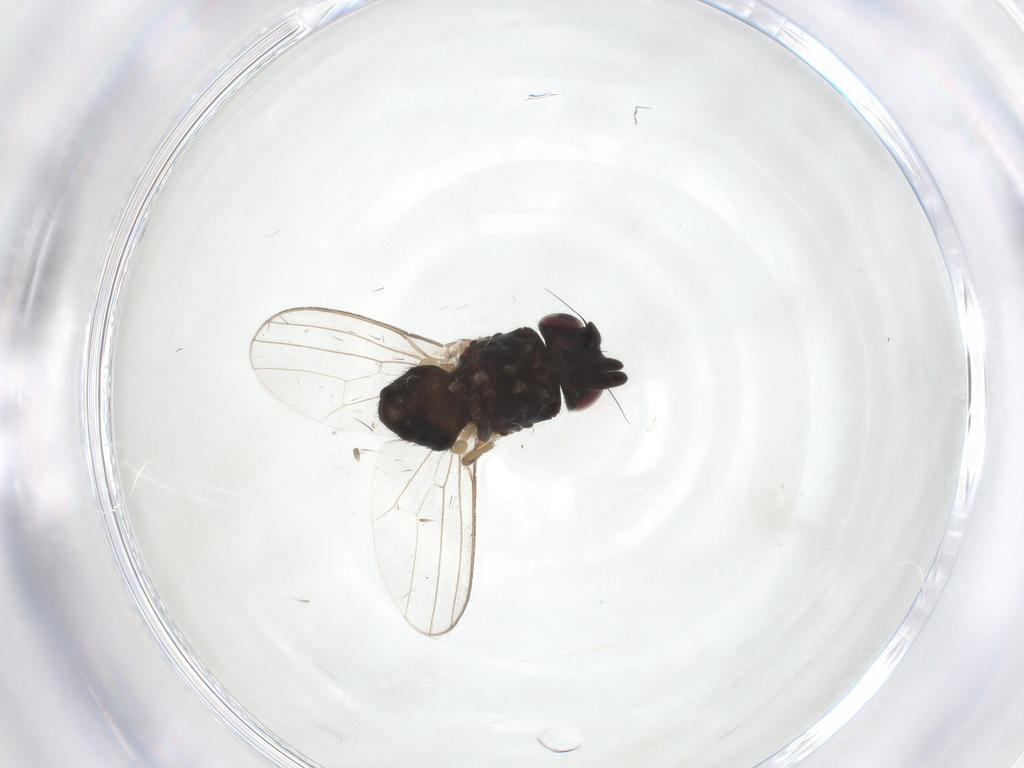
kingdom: Animalia
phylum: Arthropoda
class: Insecta
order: Diptera
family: Milichiidae
